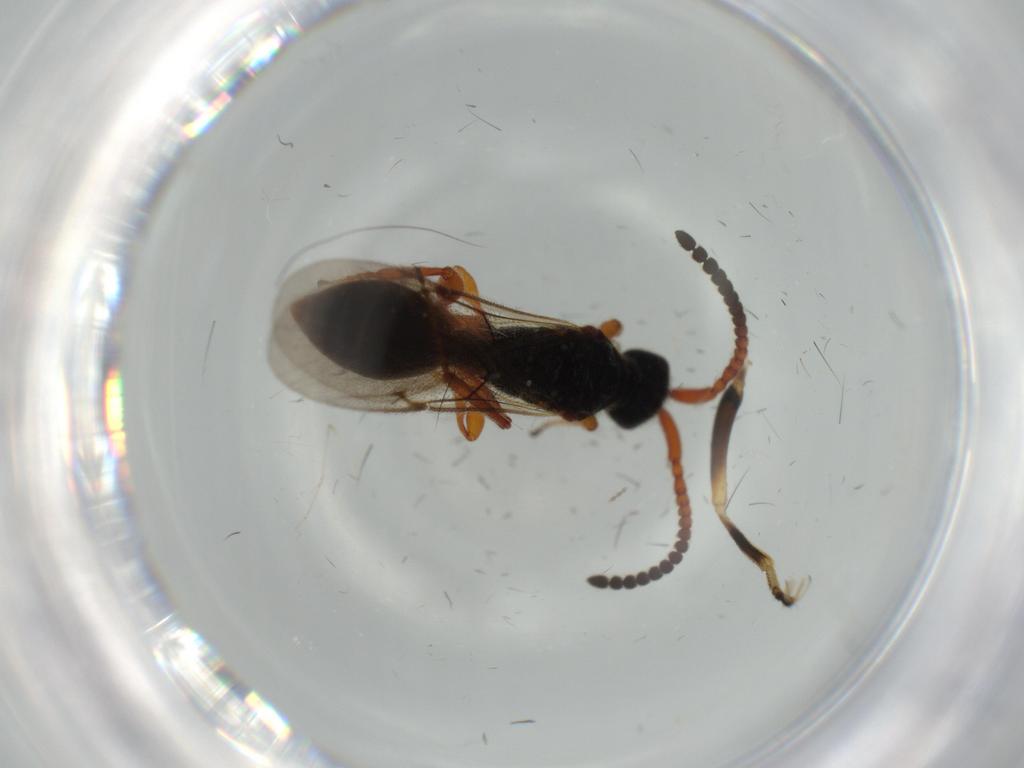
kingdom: Animalia
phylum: Arthropoda
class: Insecta
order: Hymenoptera
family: Diapriidae
